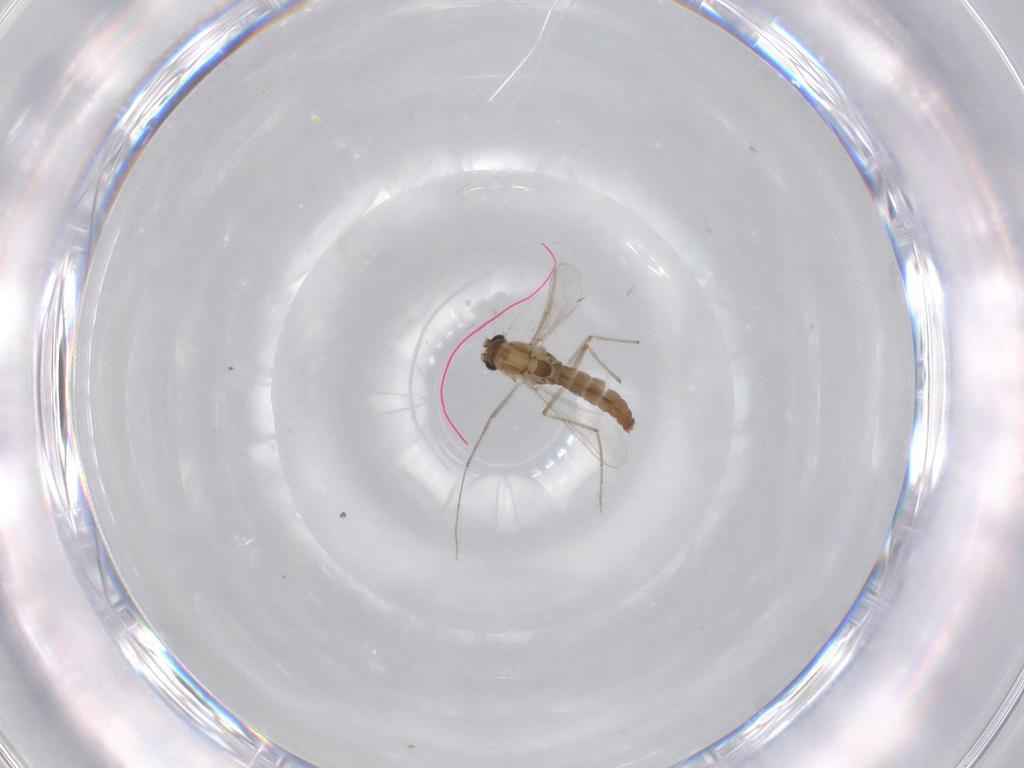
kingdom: Animalia
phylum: Arthropoda
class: Insecta
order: Diptera
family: Chironomidae
